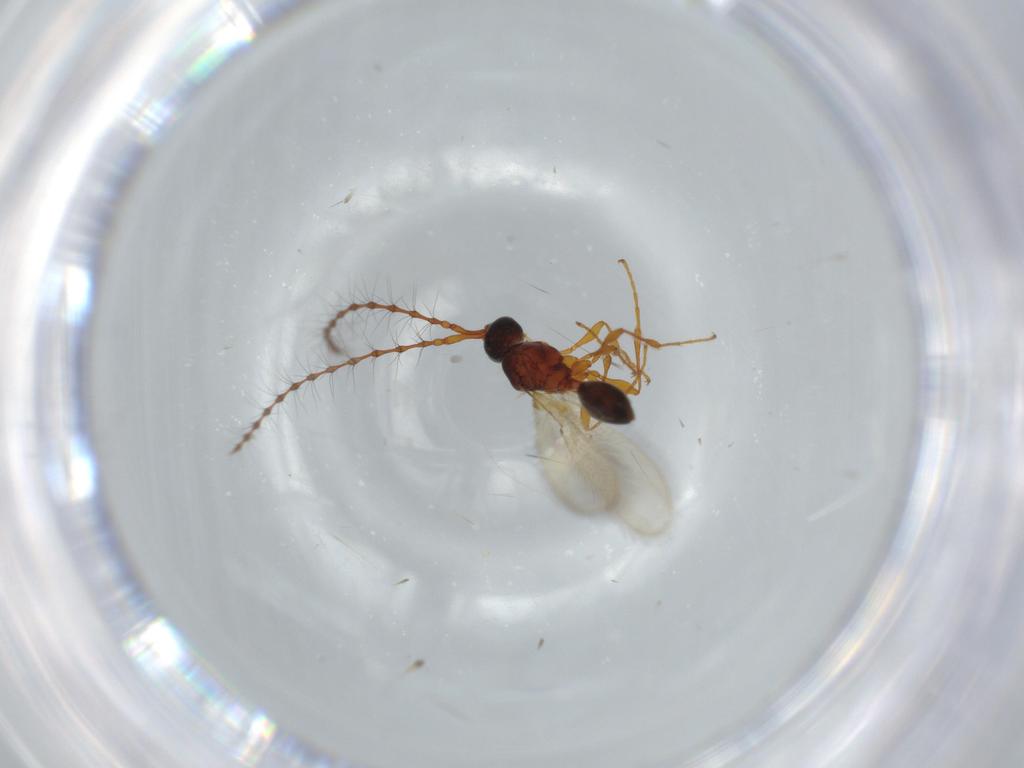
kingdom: Animalia
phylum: Arthropoda
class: Insecta
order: Hymenoptera
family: Diapriidae
